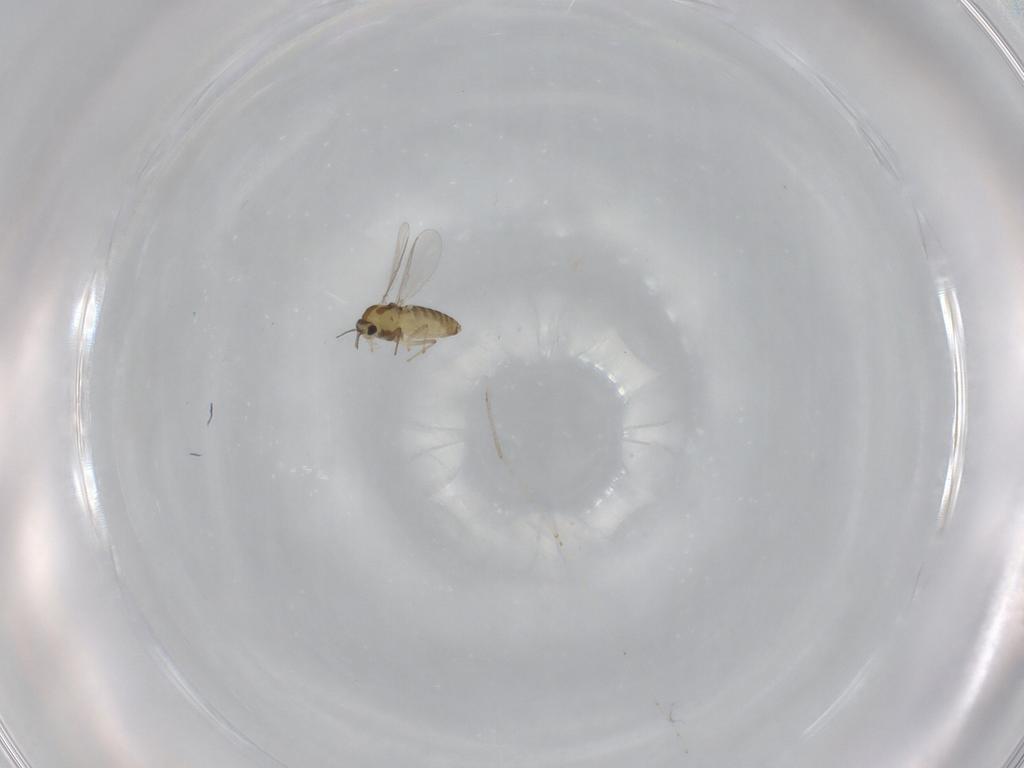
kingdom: Animalia
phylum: Arthropoda
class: Insecta
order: Diptera
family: Chironomidae
